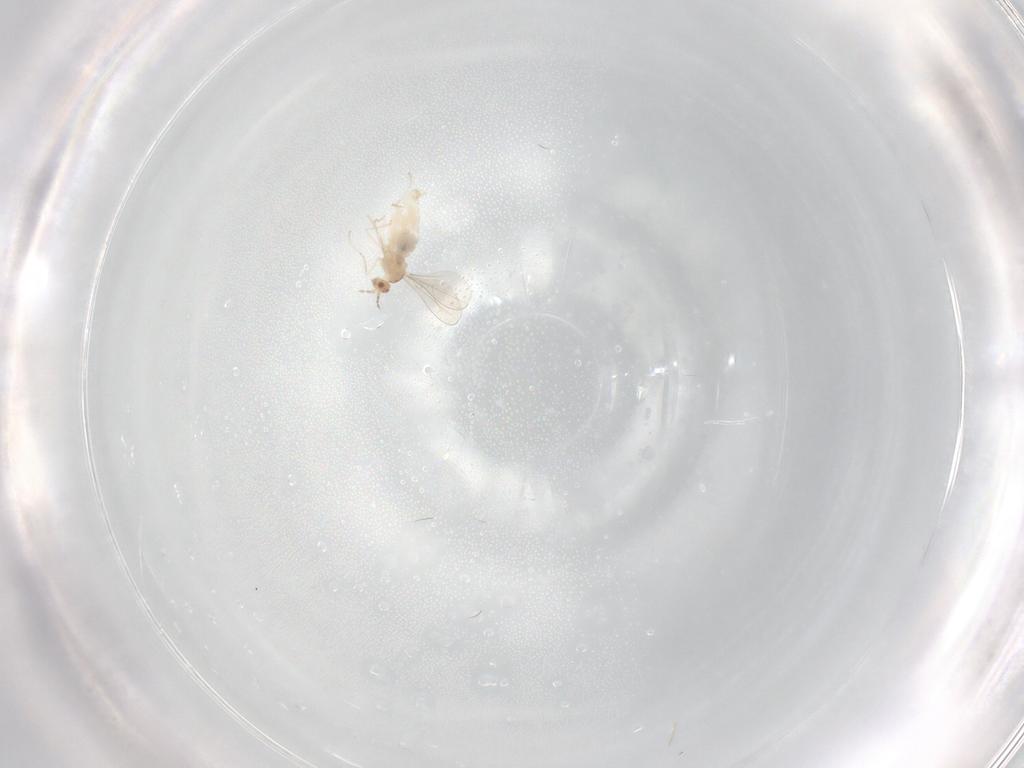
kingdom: Animalia
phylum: Arthropoda
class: Insecta
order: Diptera
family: Cecidomyiidae
